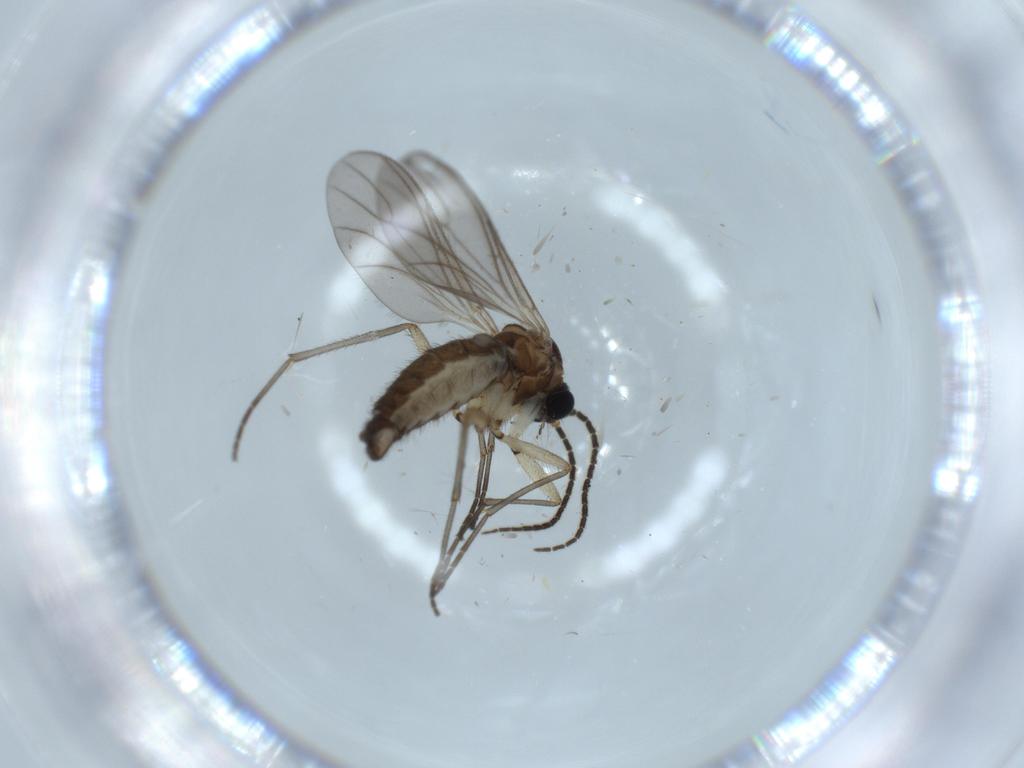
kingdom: Animalia
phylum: Arthropoda
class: Insecta
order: Diptera
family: Sciaridae
